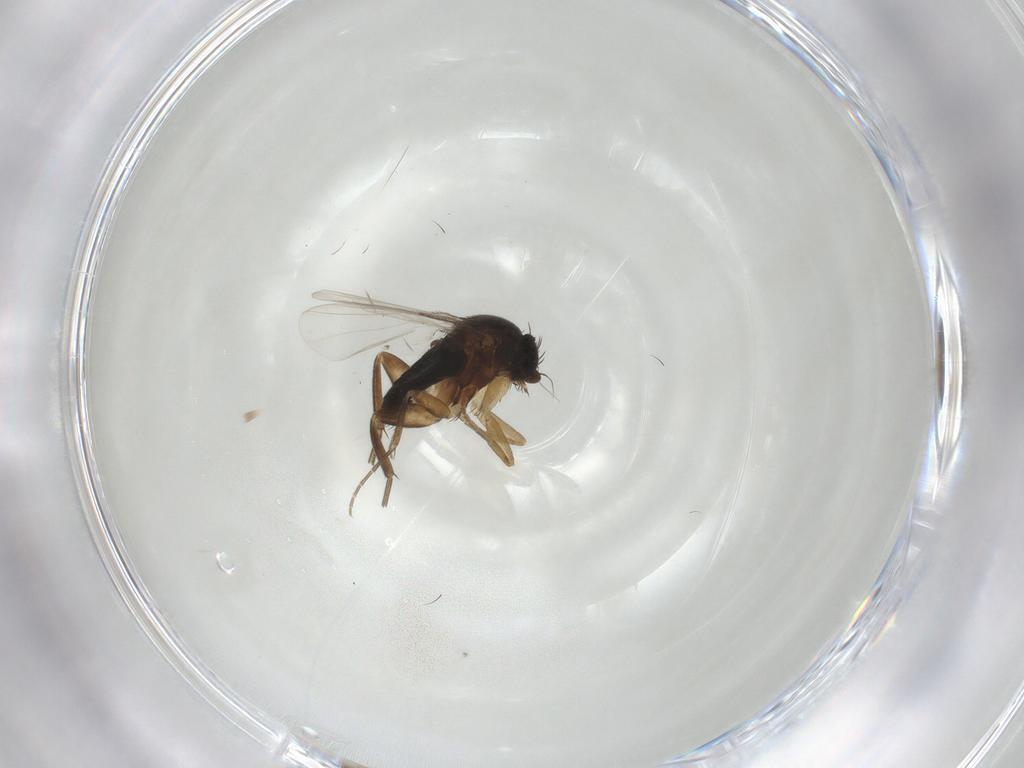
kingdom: Animalia
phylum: Arthropoda
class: Insecta
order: Diptera
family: Phoridae
